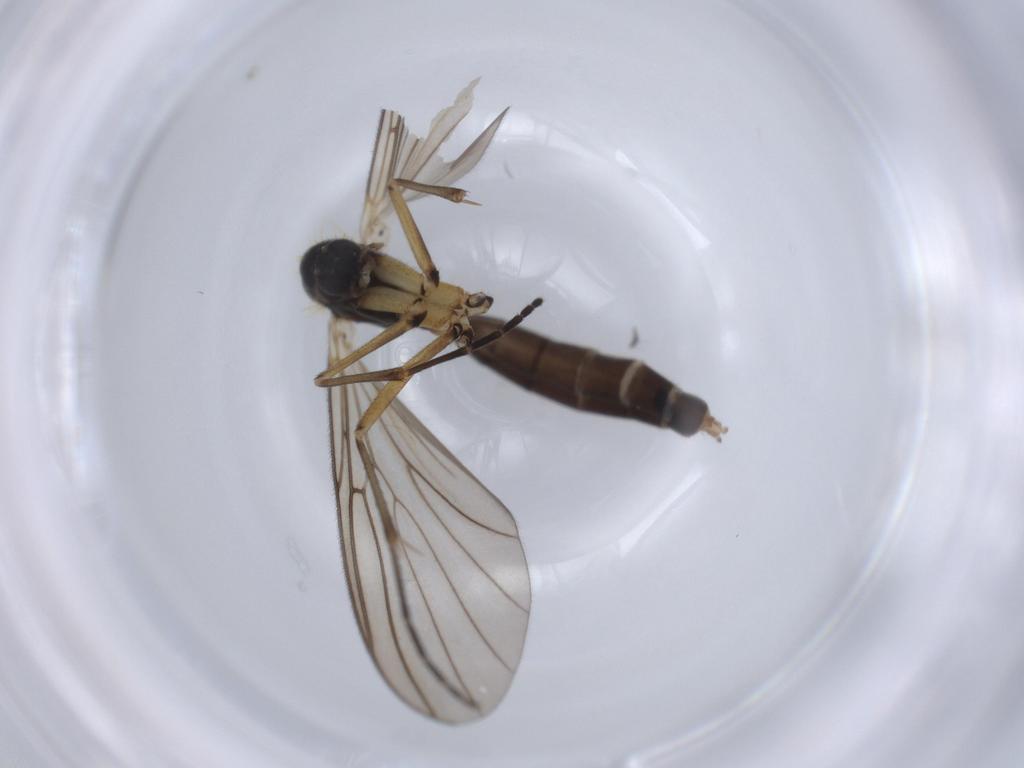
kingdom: Animalia
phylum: Arthropoda
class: Insecta
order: Diptera
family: Mycetophilidae
